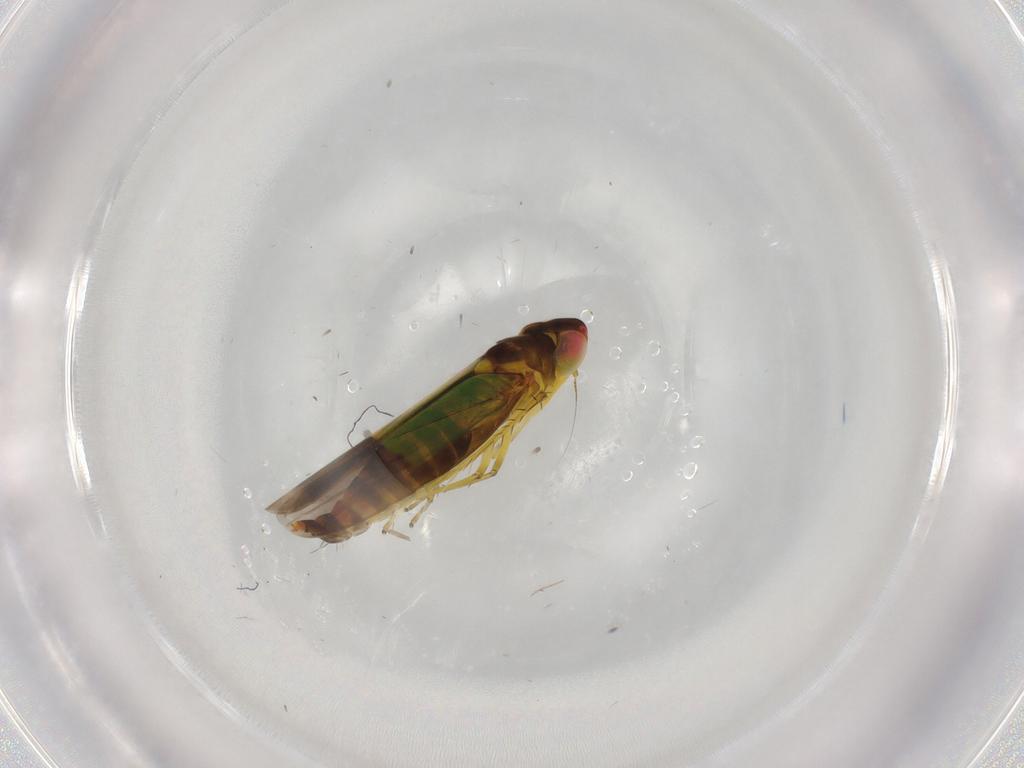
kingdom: Animalia
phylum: Arthropoda
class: Insecta
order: Hemiptera
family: Cicadellidae
